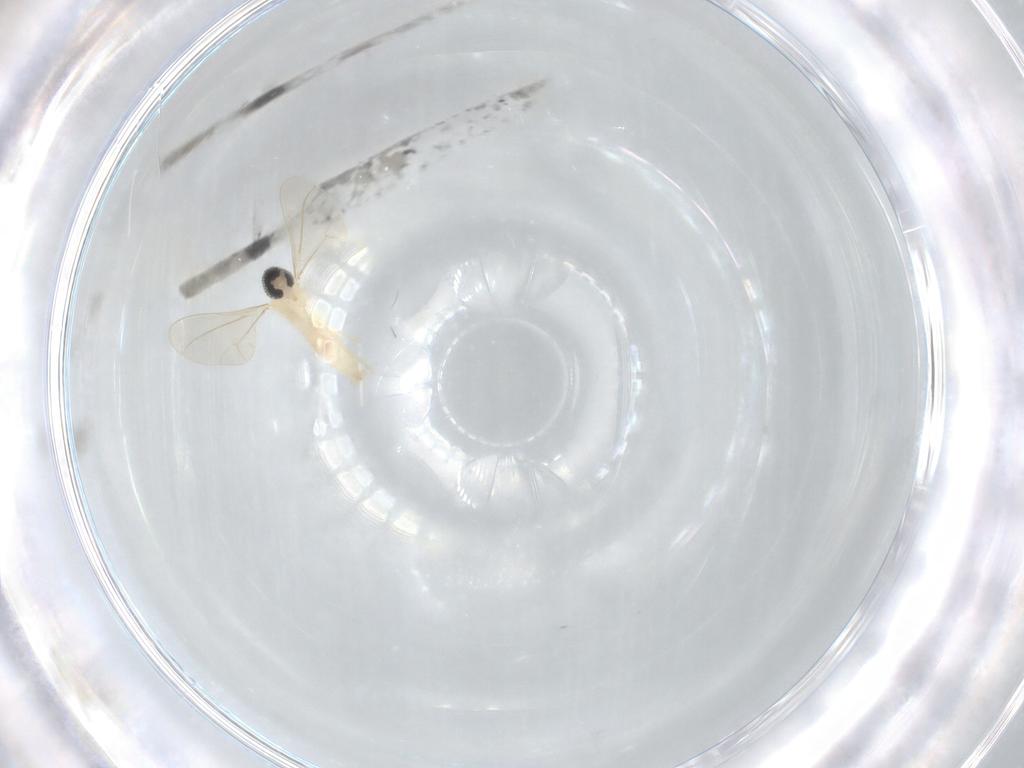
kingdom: Animalia
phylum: Arthropoda
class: Insecta
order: Diptera
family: Cecidomyiidae
